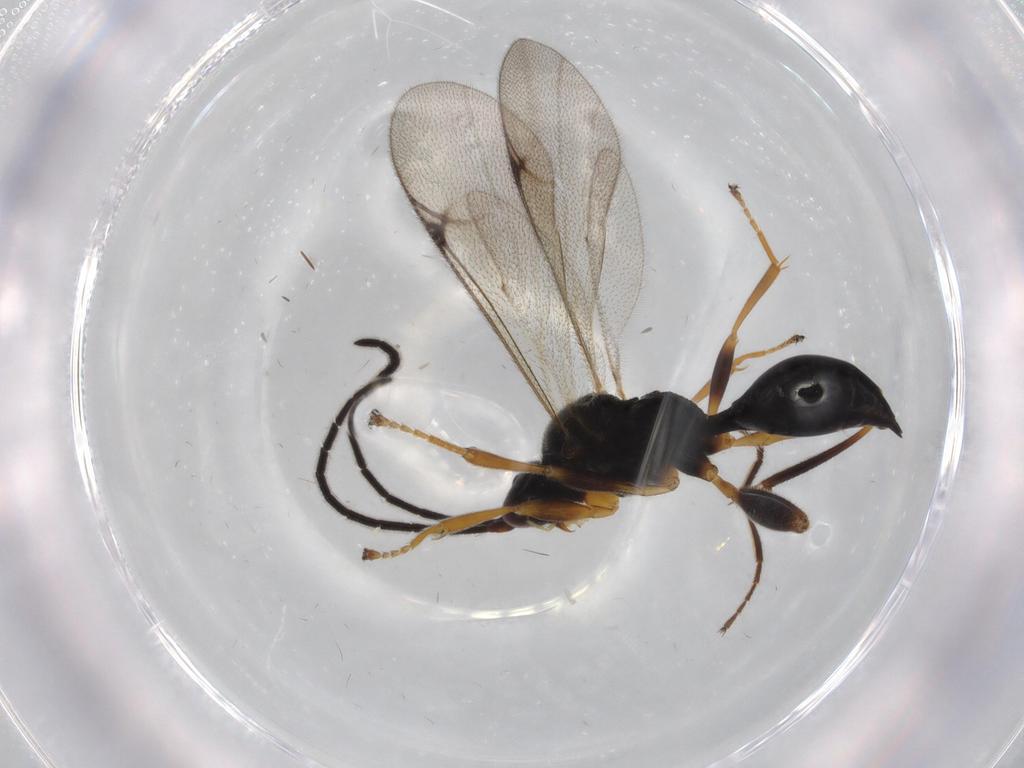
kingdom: Animalia
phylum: Arthropoda
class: Insecta
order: Hymenoptera
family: Proctotrupidae
